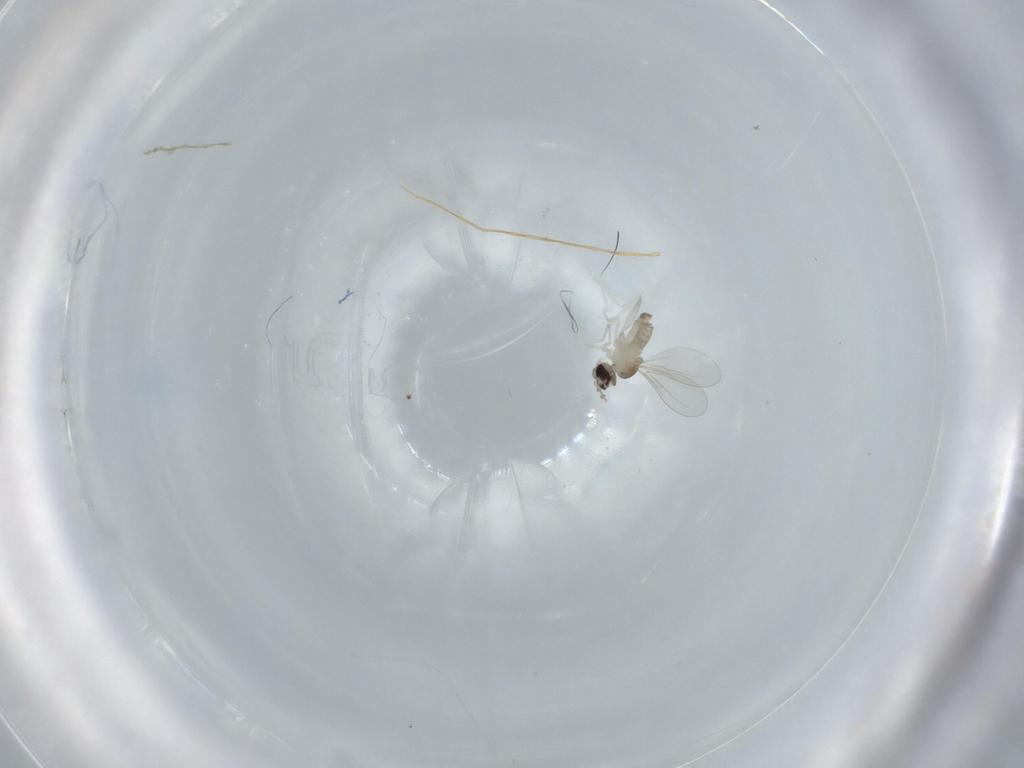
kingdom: Animalia
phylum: Arthropoda
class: Insecta
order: Diptera
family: Cecidomyiidae
